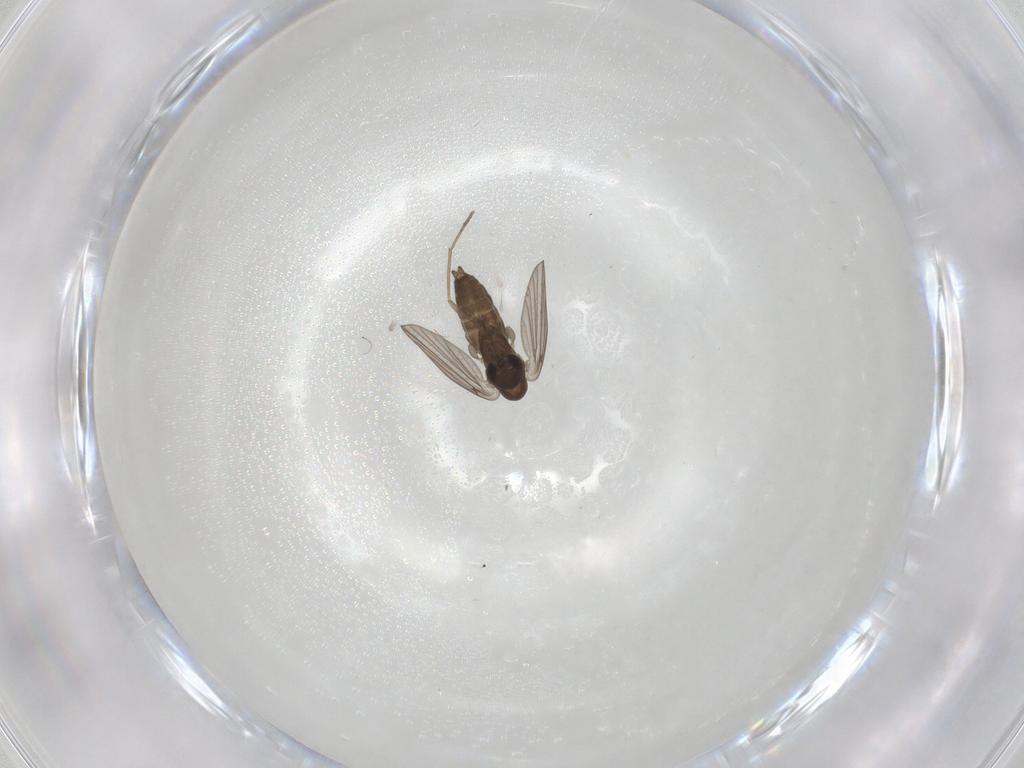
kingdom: Animalia
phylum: Arthropoda
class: Insecta
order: Diptera
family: Mycetophilidae
